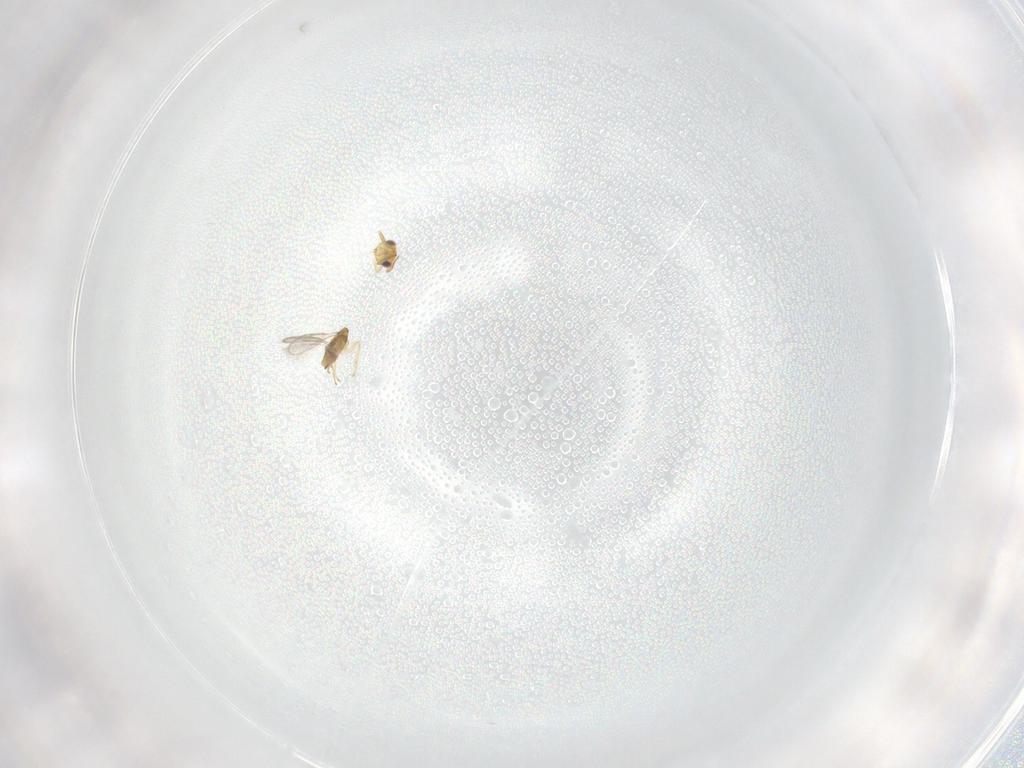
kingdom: Animalia
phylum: Arthropoda
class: Insecta
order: Hymenoptera
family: Aphelinidae
